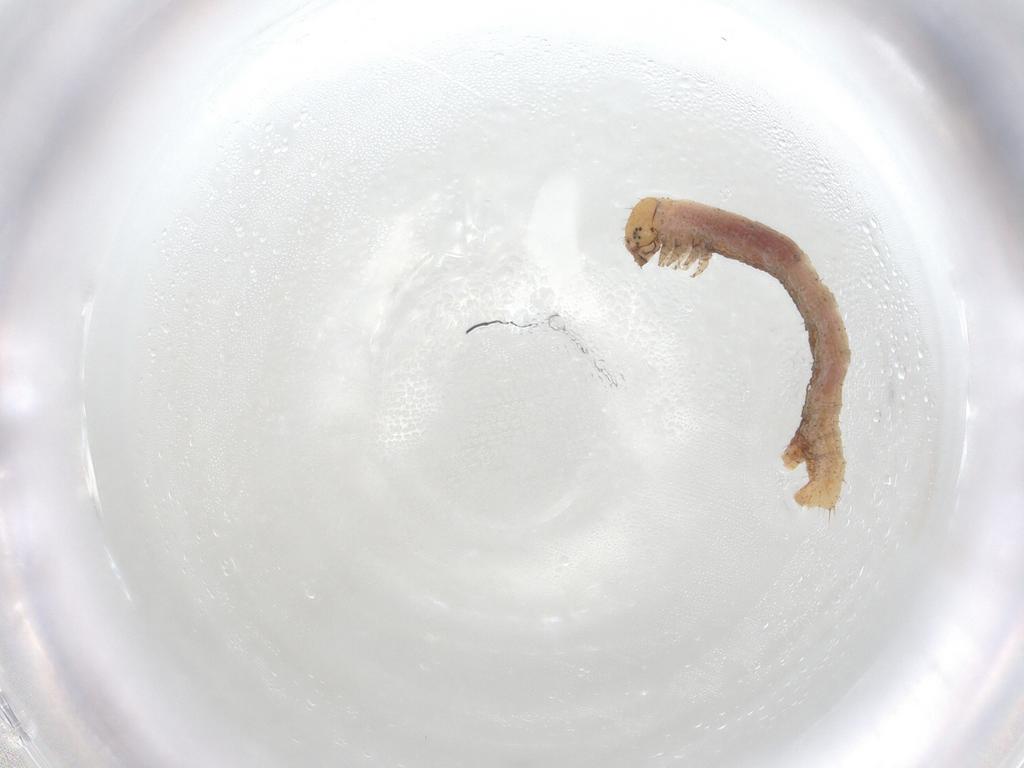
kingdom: Animalia
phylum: Arthropoda
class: Insecta
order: Lepidoptera
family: Geometridae
